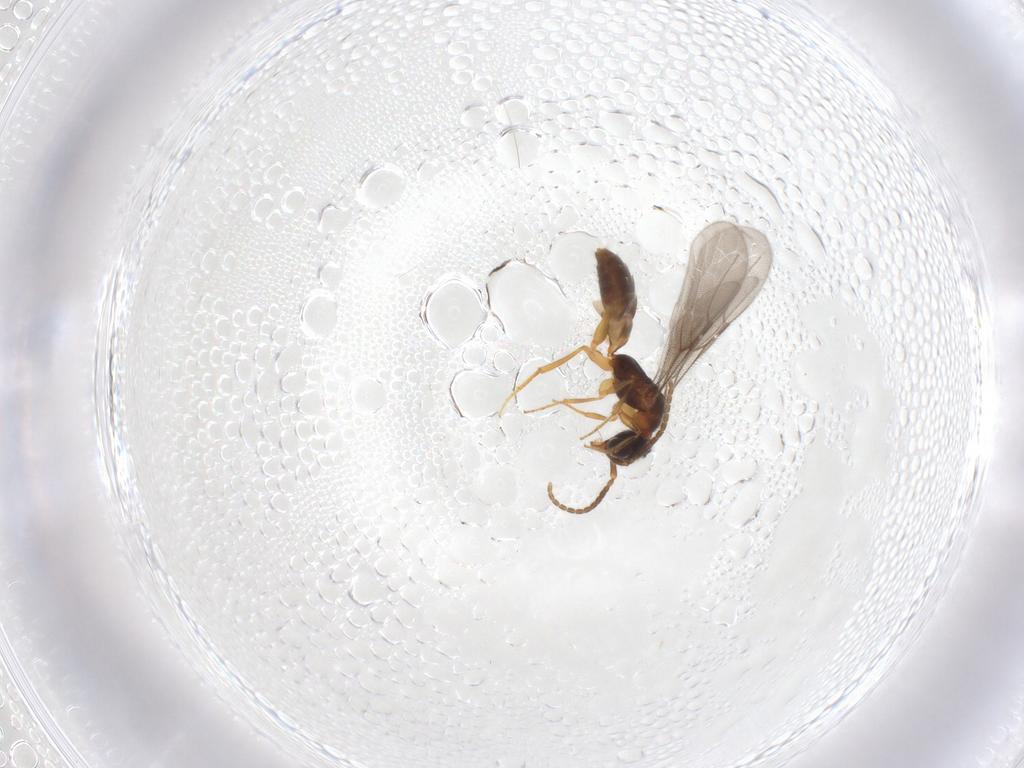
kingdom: Animalia
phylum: Arthropoda
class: Insecta
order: Hymenoptera
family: Bethylidae
